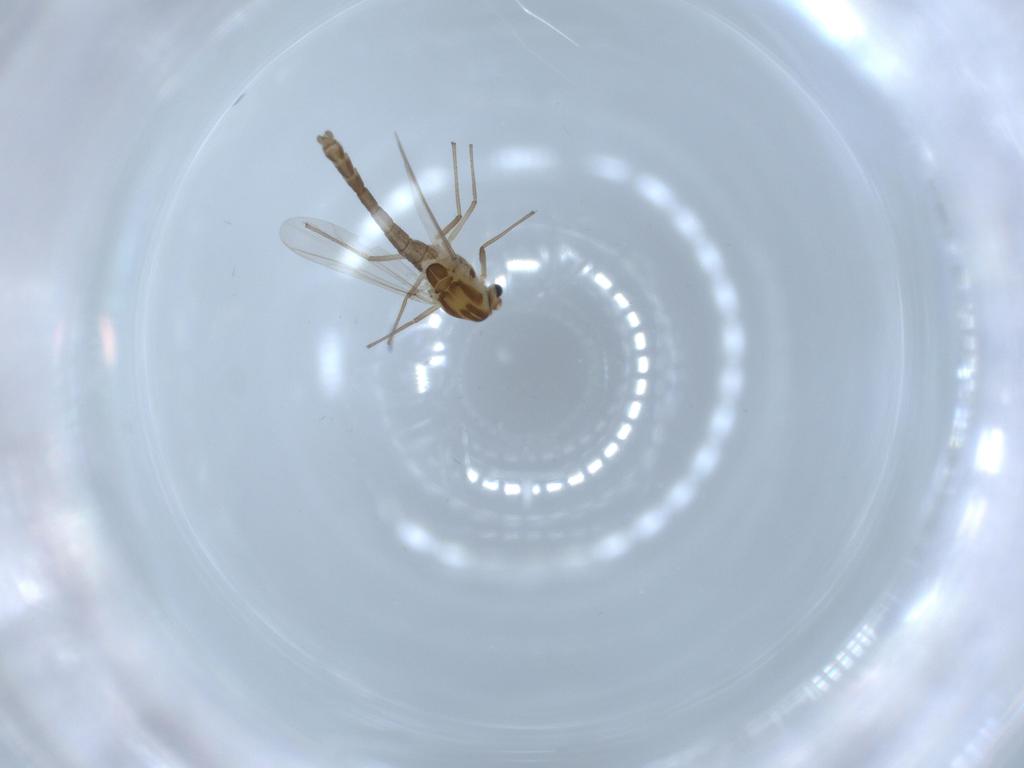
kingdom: Animalia
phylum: Arthropoda
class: Insecta
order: Diptera
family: Chironomidae
